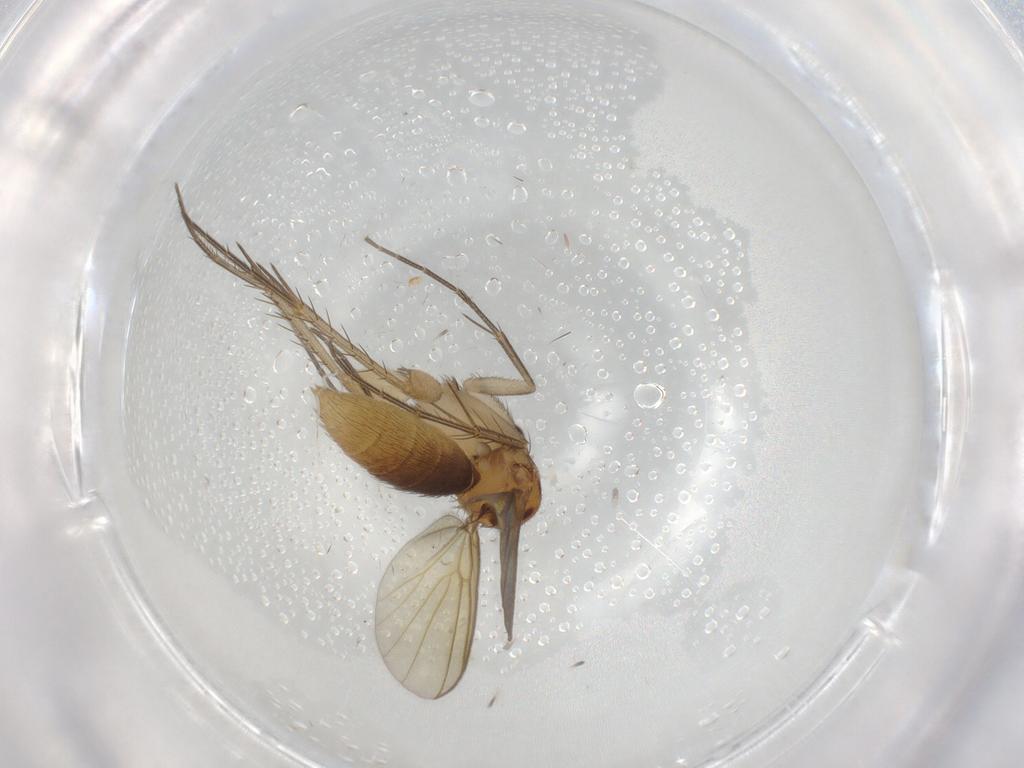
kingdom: Animalia
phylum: Arthropoda
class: Insecta
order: Diptera
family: Mycetophilidae
